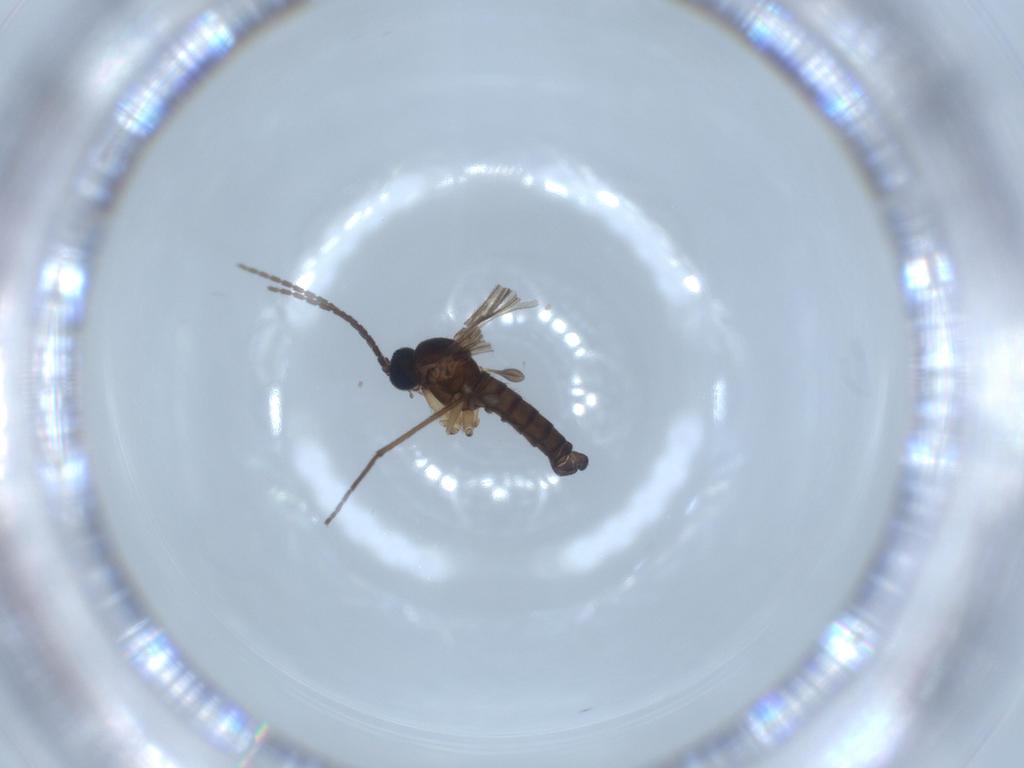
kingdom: Animalia
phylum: Arthropoda
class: Insecta
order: Diptera
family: Sciaridae
